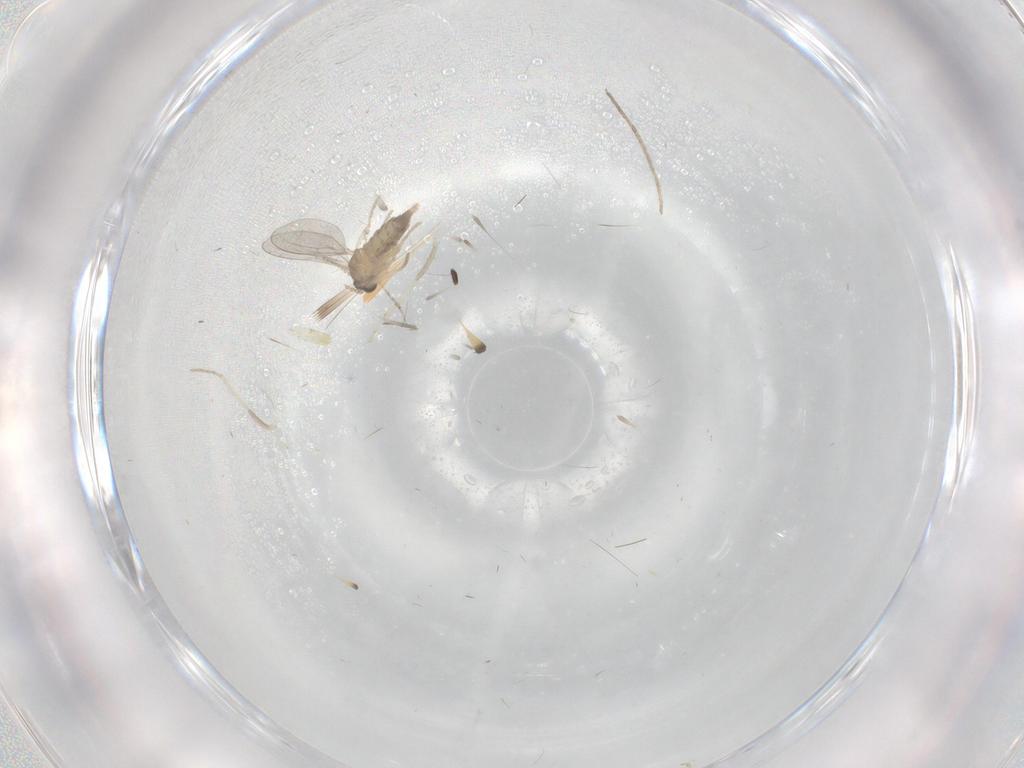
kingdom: Animalia
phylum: Arthropoda
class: Insecta
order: Diptera
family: Cecidomyiidae
